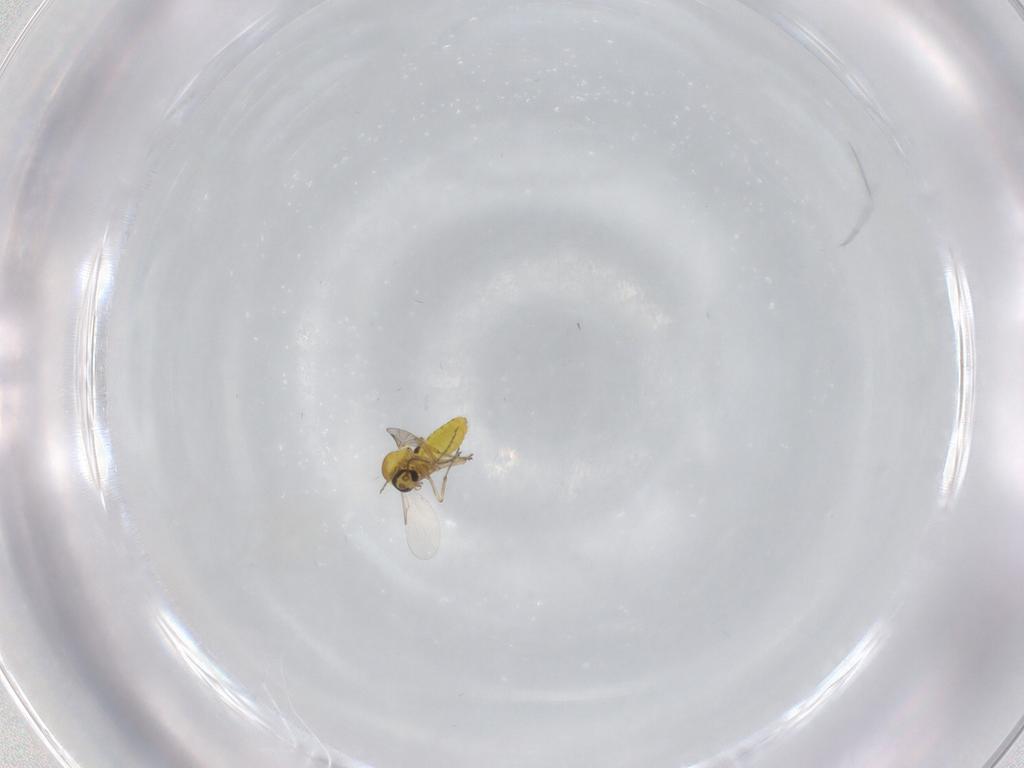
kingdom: Animalia
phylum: Arthropoda
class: Insecta
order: Diptera
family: Ceratopogonidae
